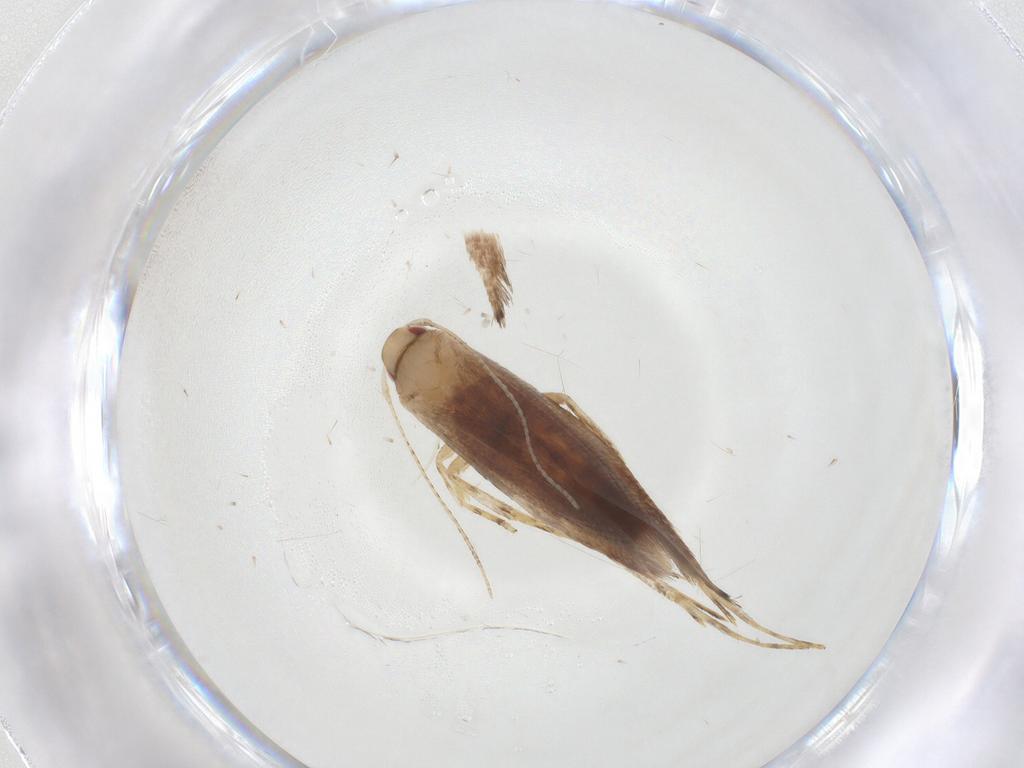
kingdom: Animalia
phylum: Arthropoda
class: Insecta
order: Lepidoptera
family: Cosmopterigidae
